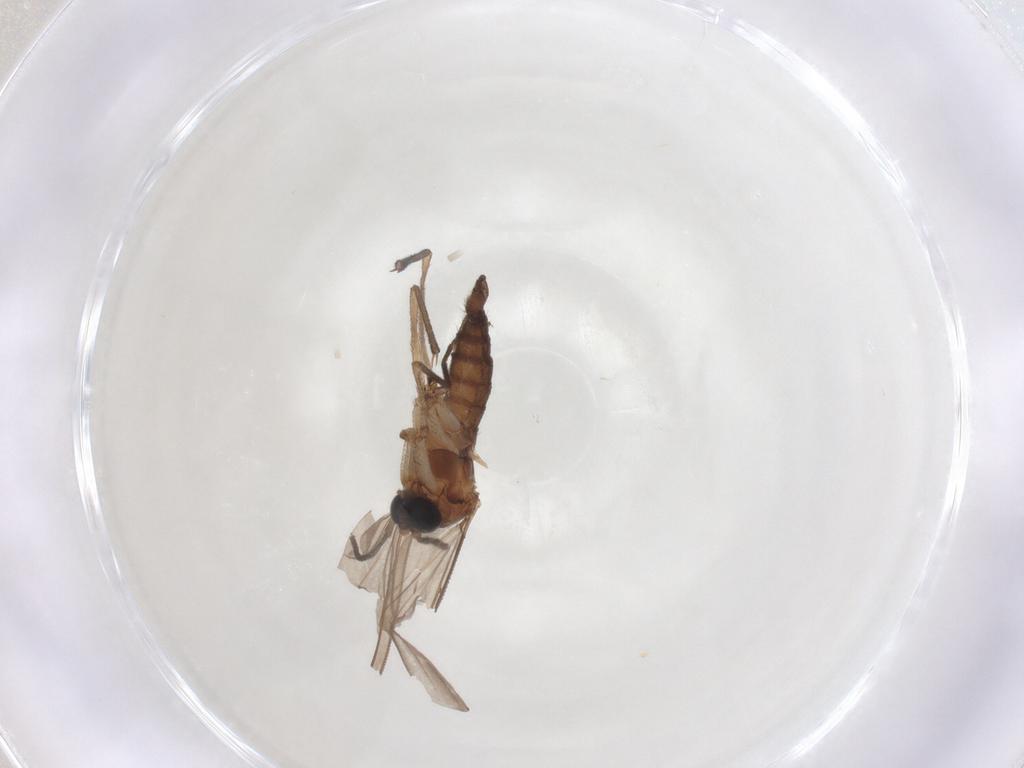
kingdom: Animalia
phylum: Arthropoda
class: Insecta
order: Diptera
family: Sciaridae
